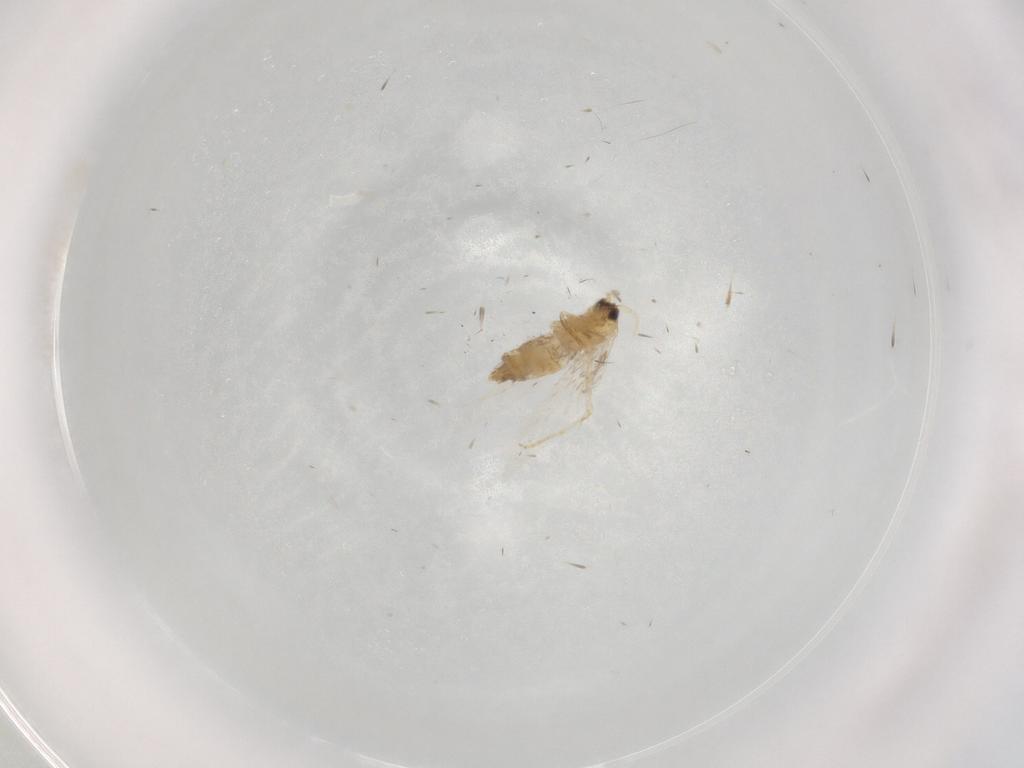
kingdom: Animalia
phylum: Arthropoda
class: Insecta
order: Lepidoptera
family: Nepticulidae
